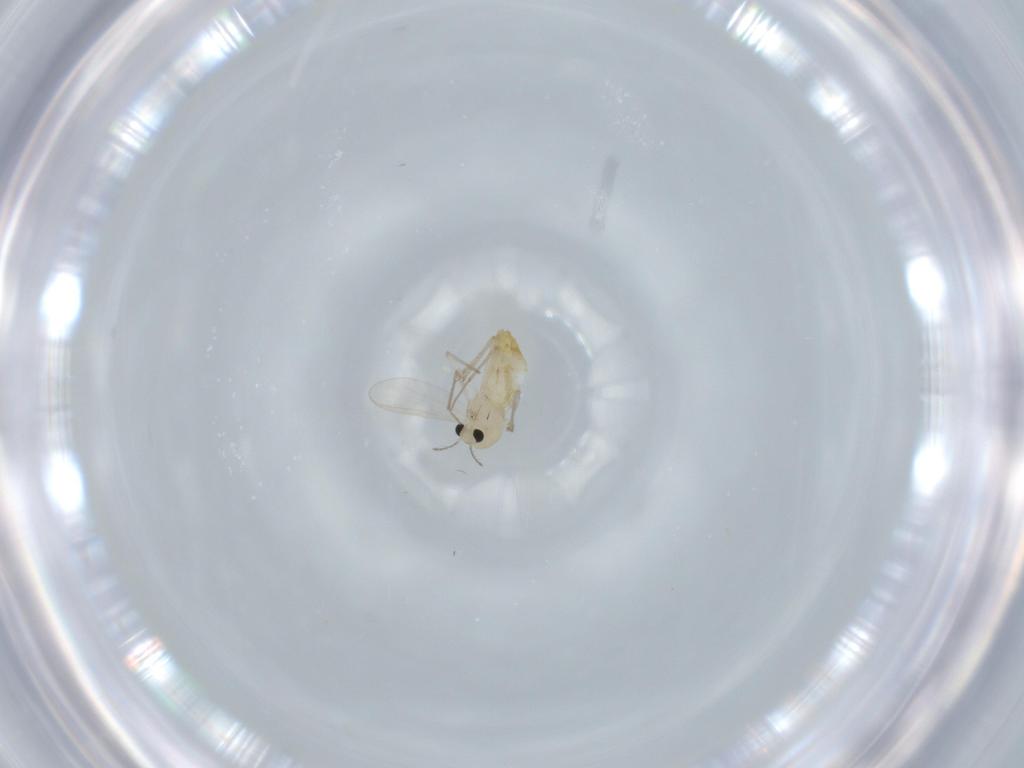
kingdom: Animalia
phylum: Arthropoda
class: Insecta
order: Diptera
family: Chironomidae
